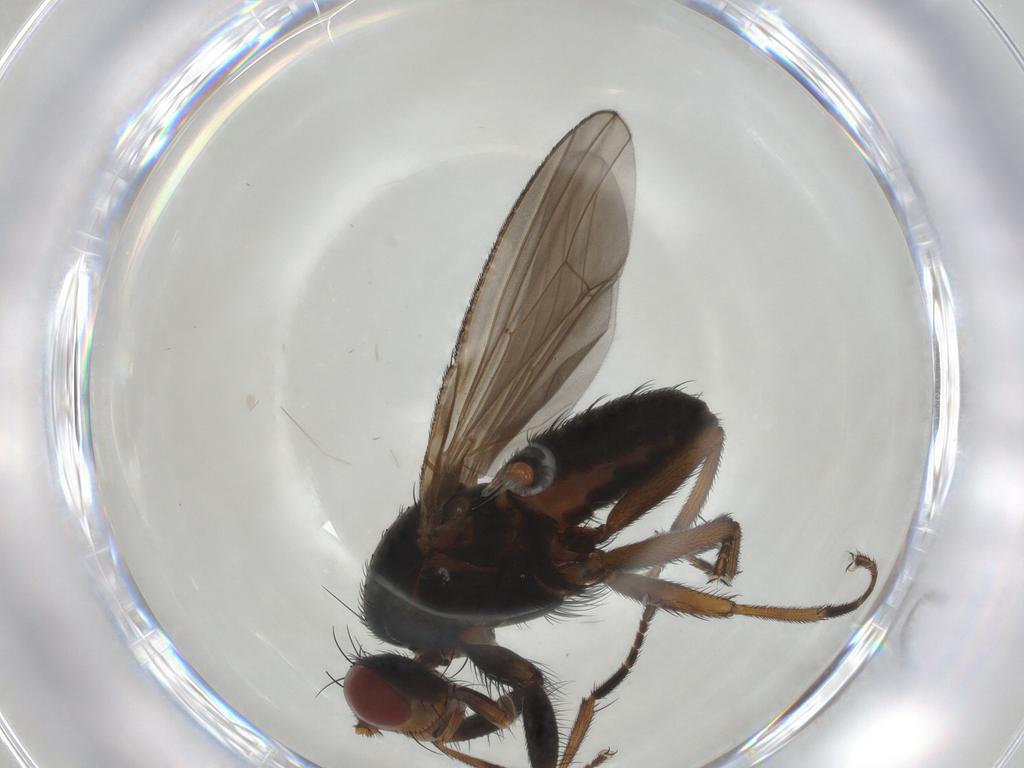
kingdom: Animalia
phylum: Arthropoda
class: Insecta
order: Diptera
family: Heleomyzidae
